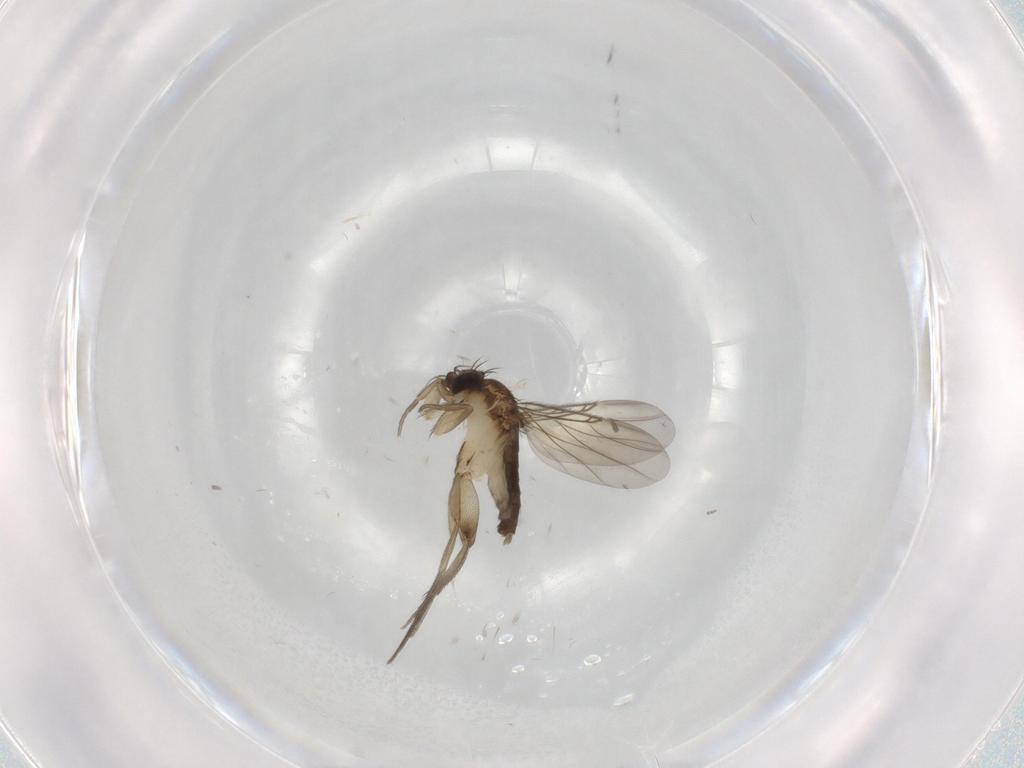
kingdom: Animalia
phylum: Arthropoda
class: Insecta
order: Diptera
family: Phoridae
